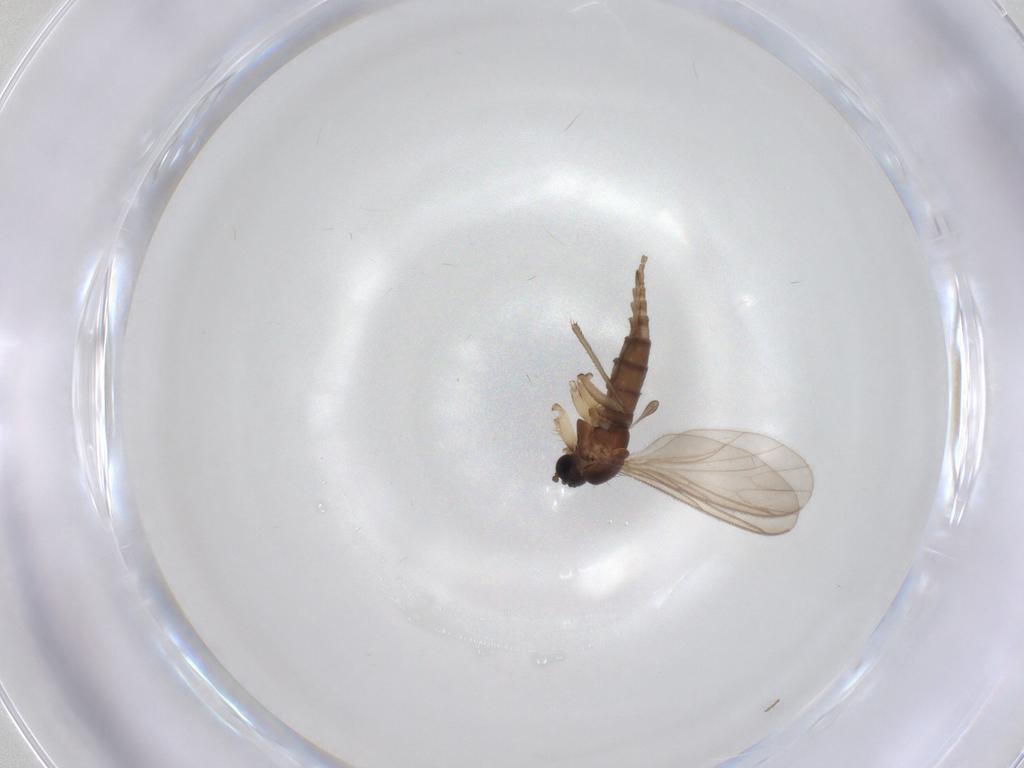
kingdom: Animalia
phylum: Arthropoda
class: Insecta
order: Diptera
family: Sciaridae
